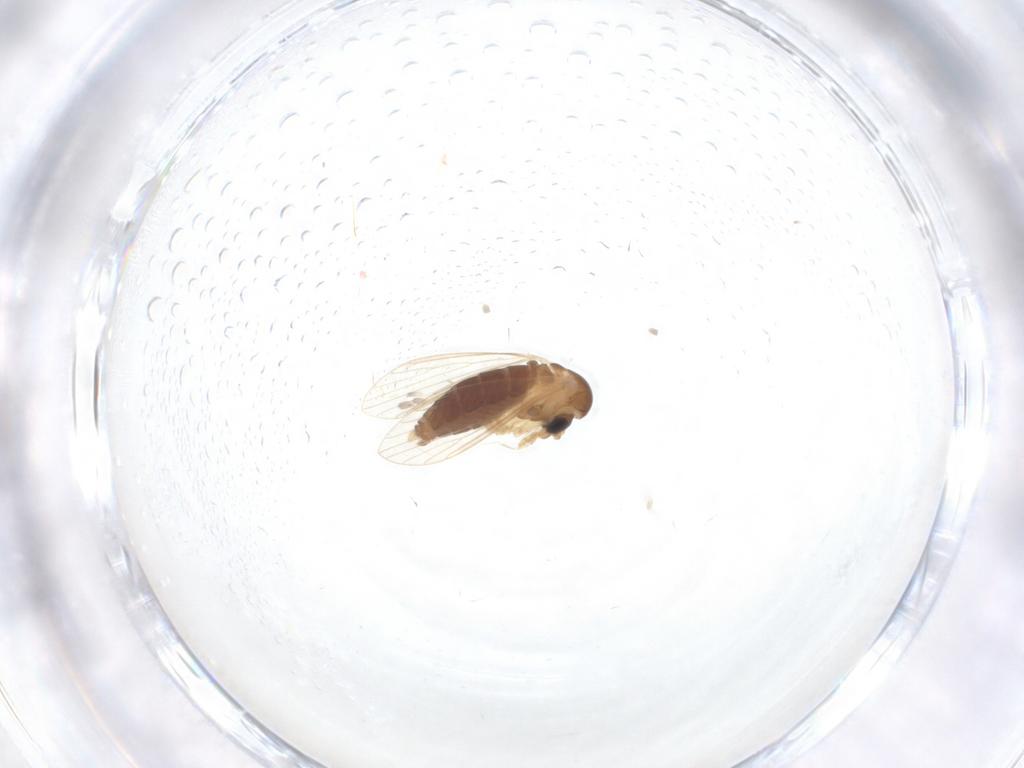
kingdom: Animalia
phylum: Arthropoda
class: Insecta
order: Diptera
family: Psychodidae
